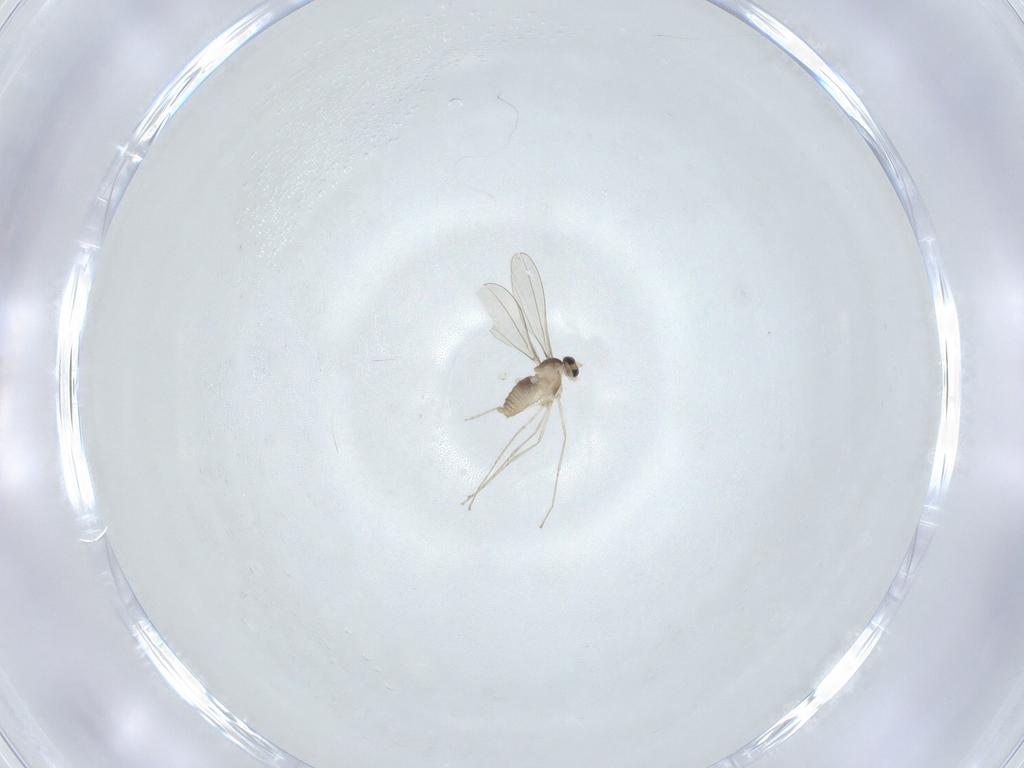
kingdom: Animalia
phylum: Arthropoda
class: Insecta
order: Diptera
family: Cecidomyiidae
